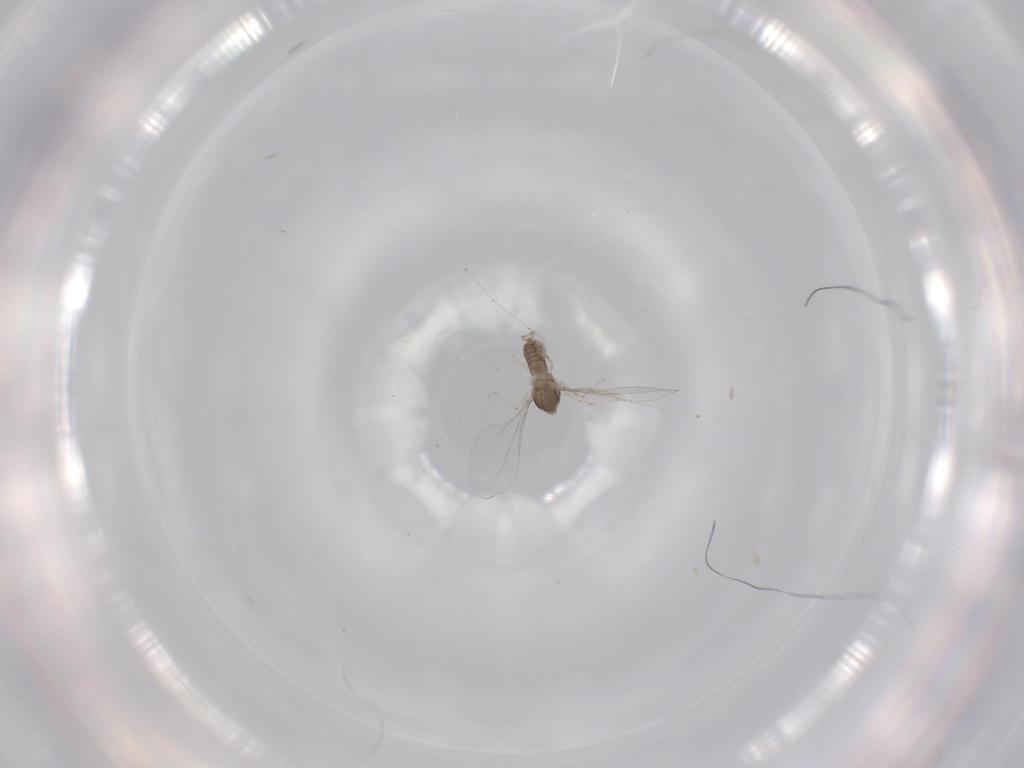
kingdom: Animalia
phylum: Arthropoda
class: Insecta
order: Diptera
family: Cecidomyiidae
